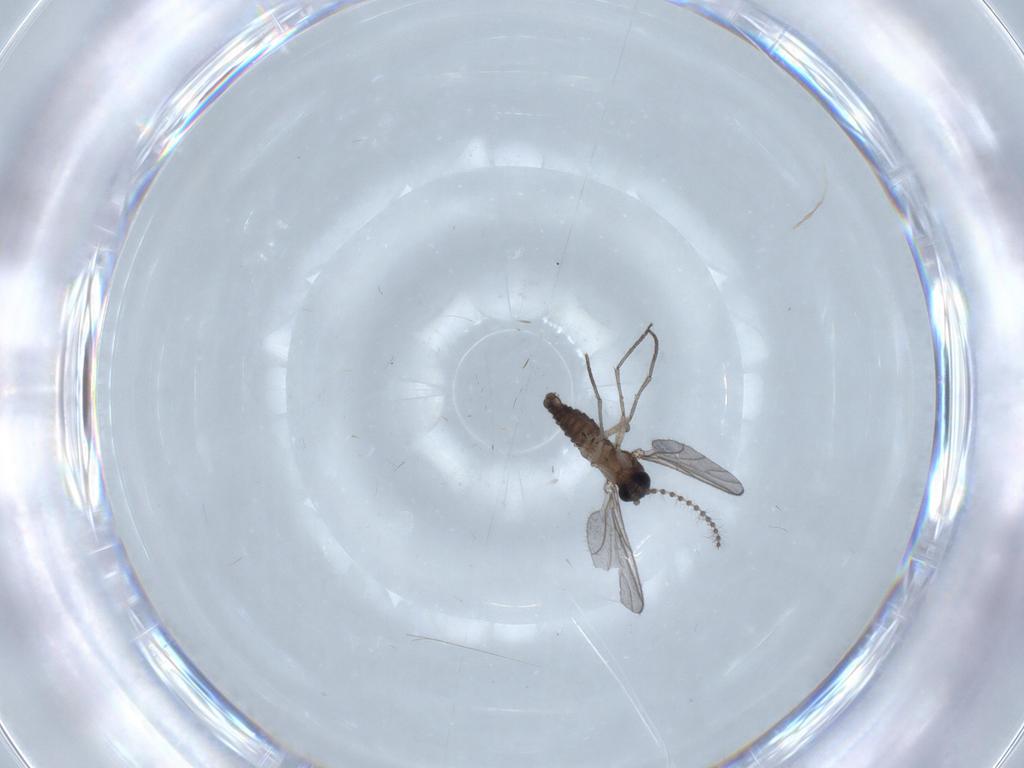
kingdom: Animalia
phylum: Arthropoda
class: Insecta
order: Diptera
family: Sciaridae
